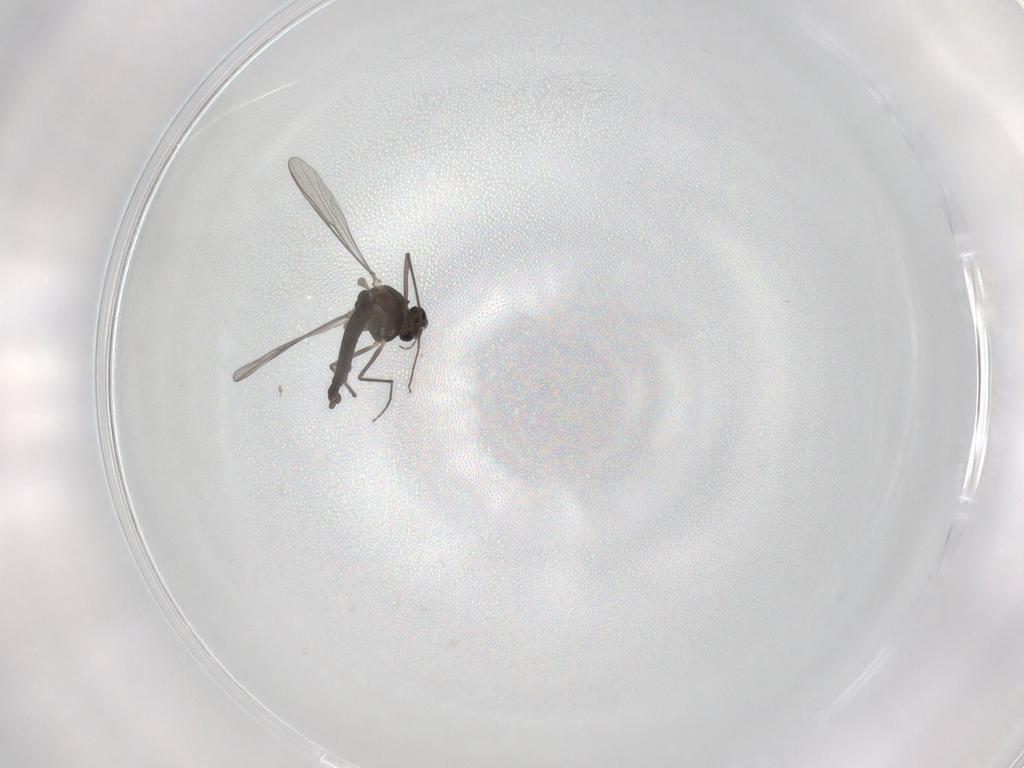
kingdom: Animalia
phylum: Arthropoda
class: Insecta
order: Diptera
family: Chironomidae
